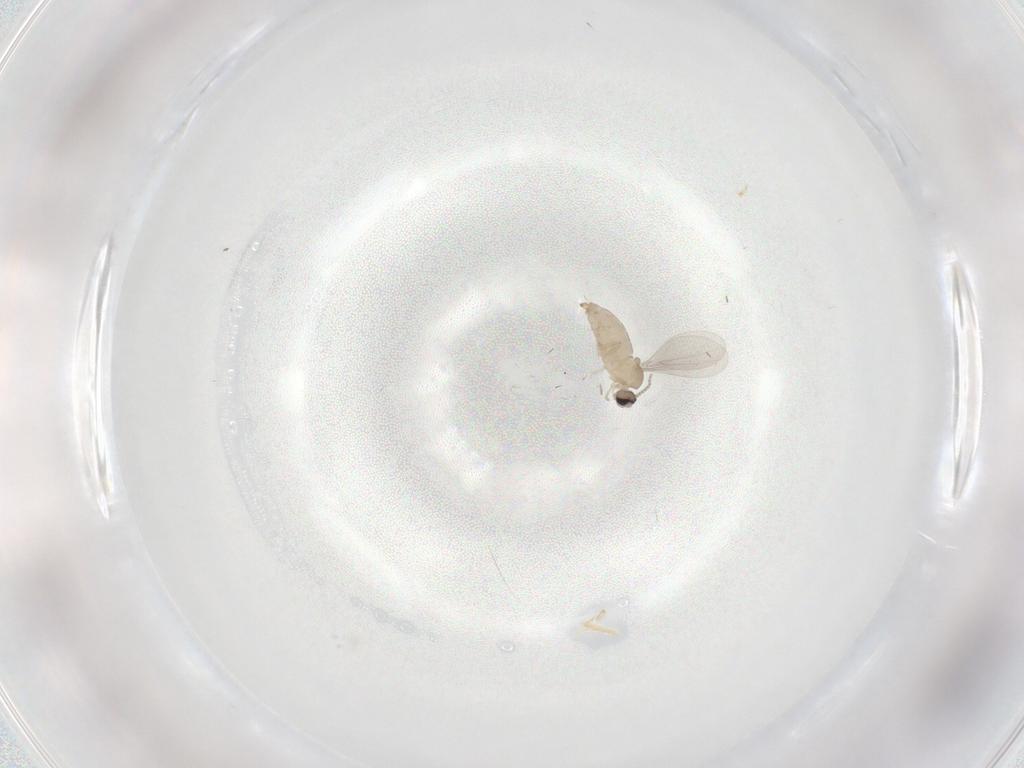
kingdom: Animalia
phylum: Arthropoda
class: Insecta
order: Diptera
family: Cecidomyiidae
